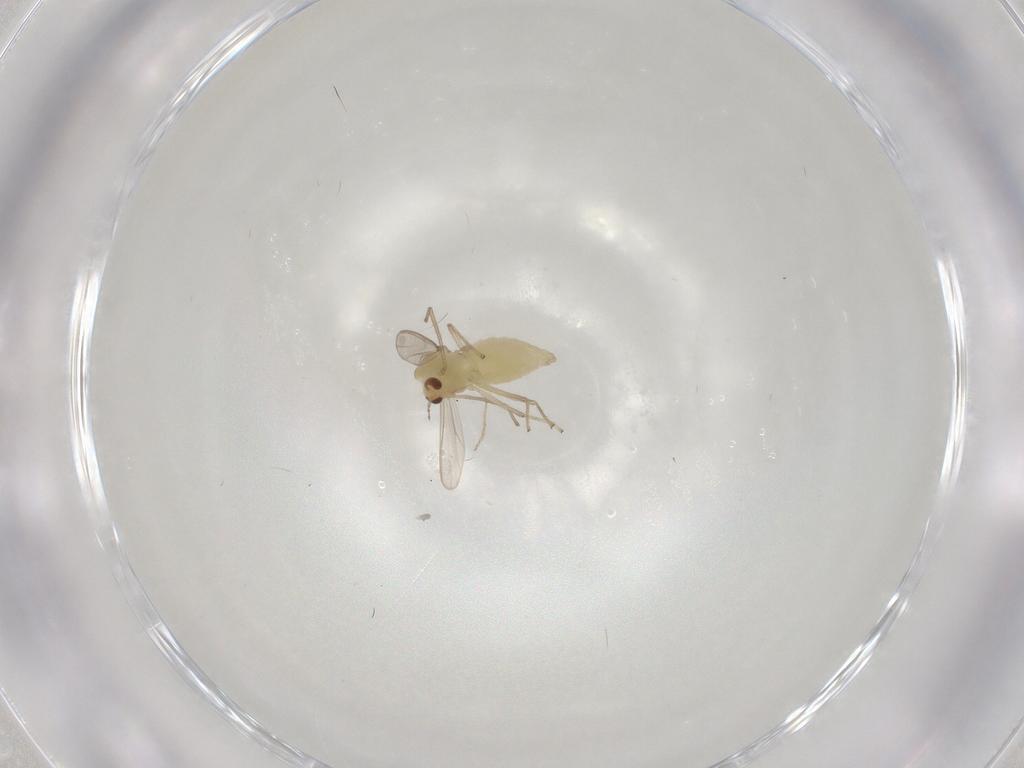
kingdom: Animalia
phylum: Arthropoda
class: Insecta
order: Diptera
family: Chironomidae
